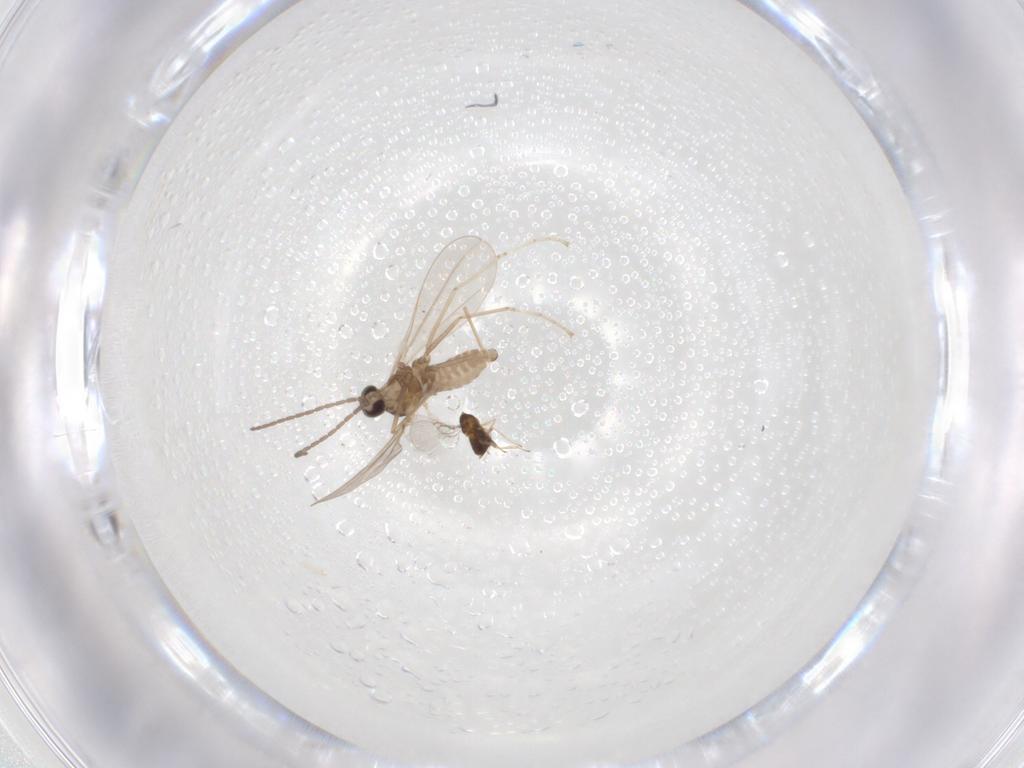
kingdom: Animalia
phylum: Arthropoda
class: Insecta
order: Diptera
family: Cecidomyiidae
